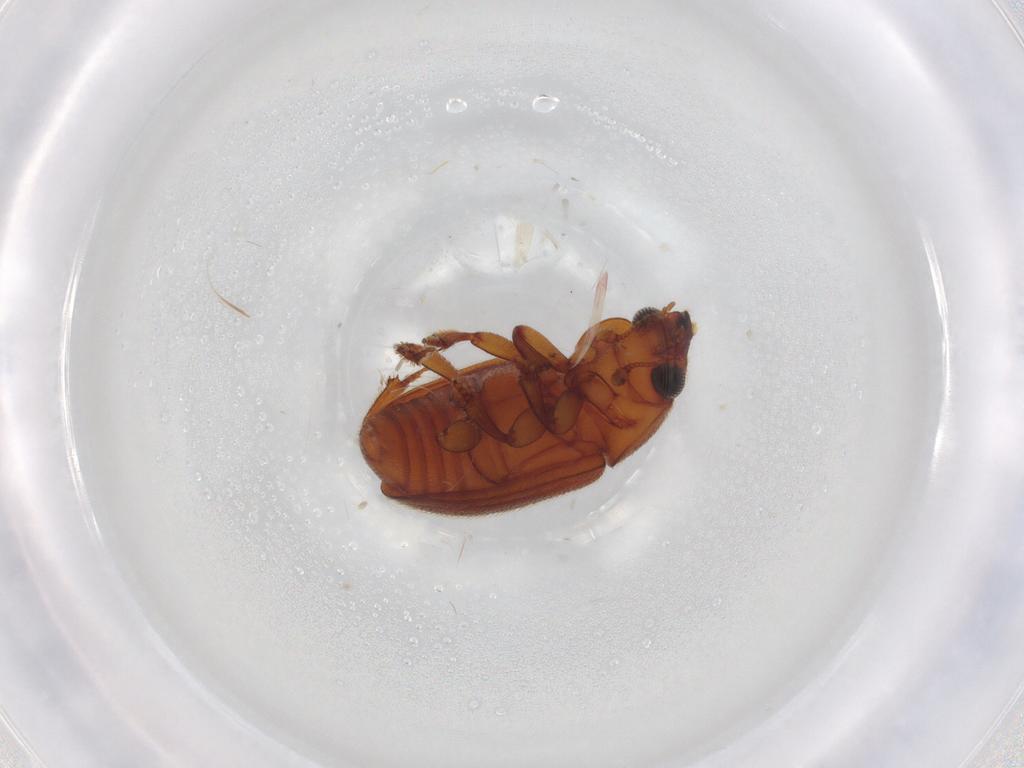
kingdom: Animalia
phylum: Arthropoda
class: Insecta
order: Coleoptera
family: Nitidulidae
